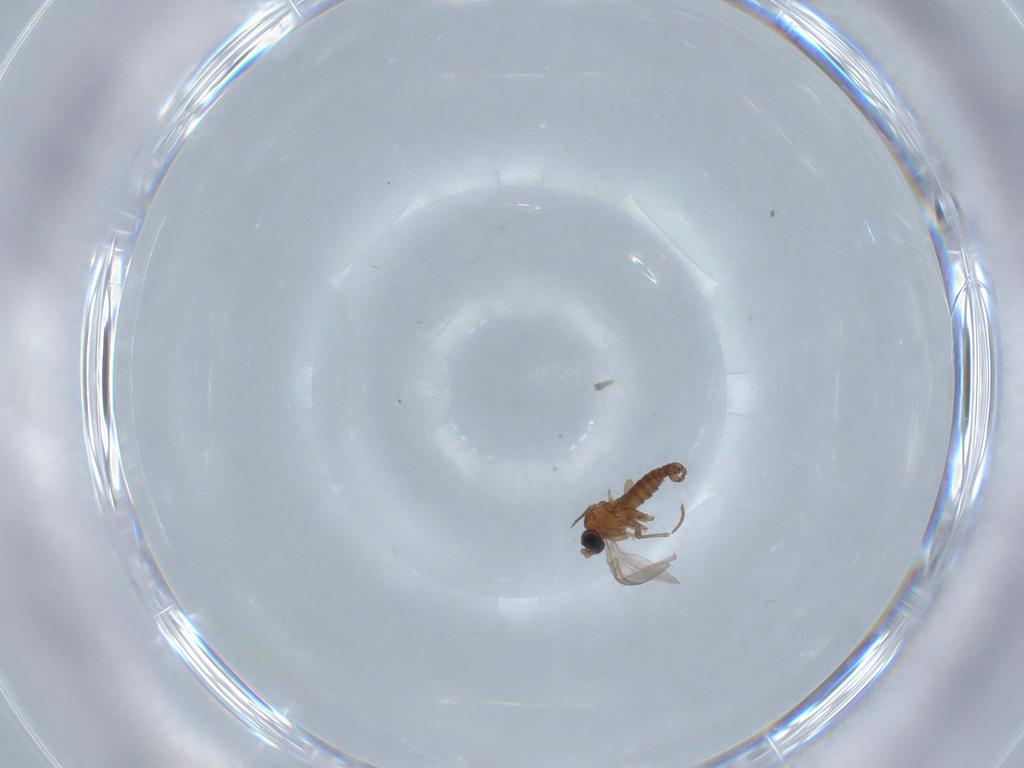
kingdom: Animalia
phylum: Arthropoda
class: Insecta
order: Diptera
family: Sciaridae
